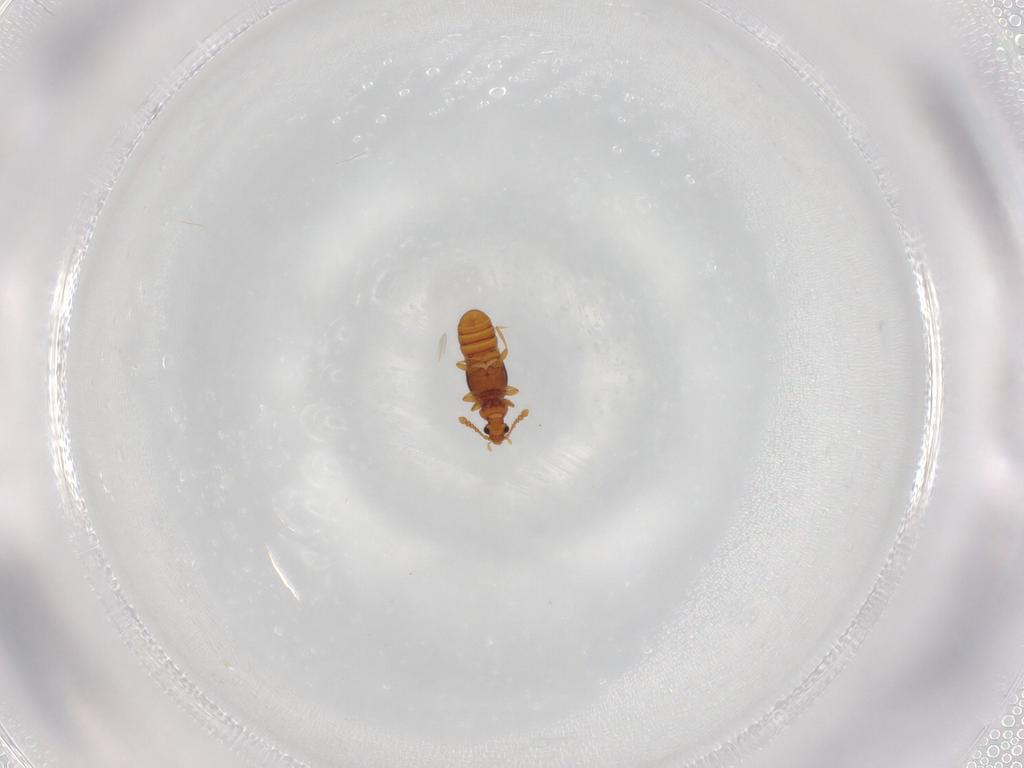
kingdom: Animalia
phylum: Arthropoda
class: Insecta
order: Coleoptera
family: Staphylinidae
